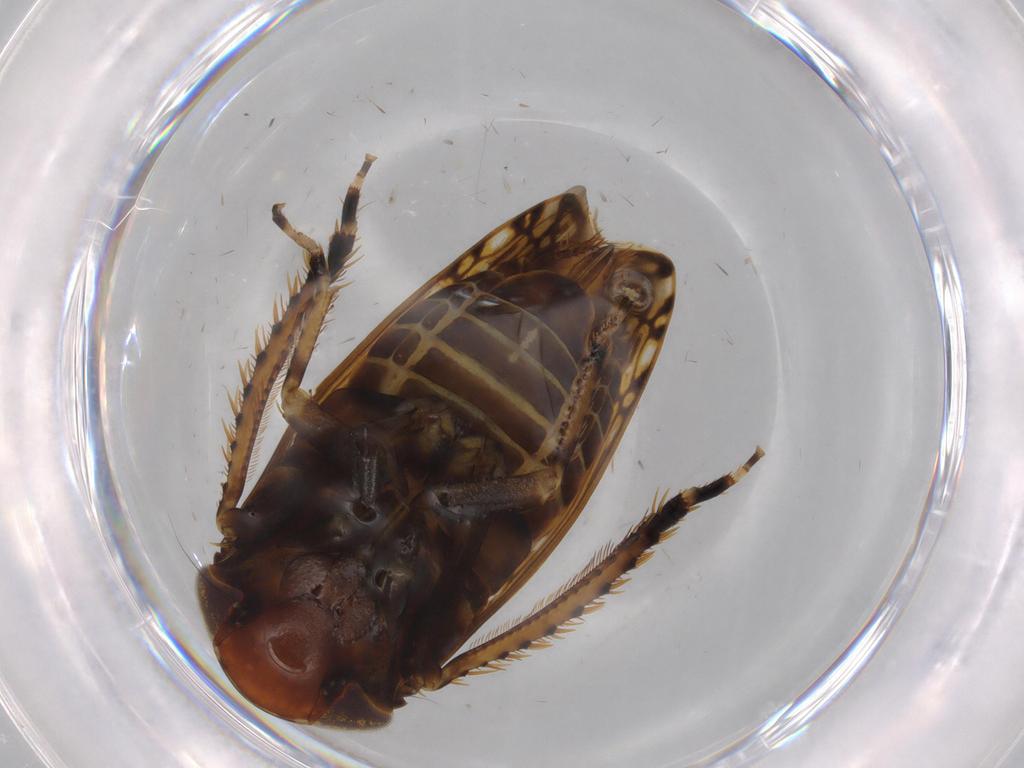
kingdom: Animalia
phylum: Arthropoda
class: Insecta
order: Hemiptera
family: Cicadellidae
